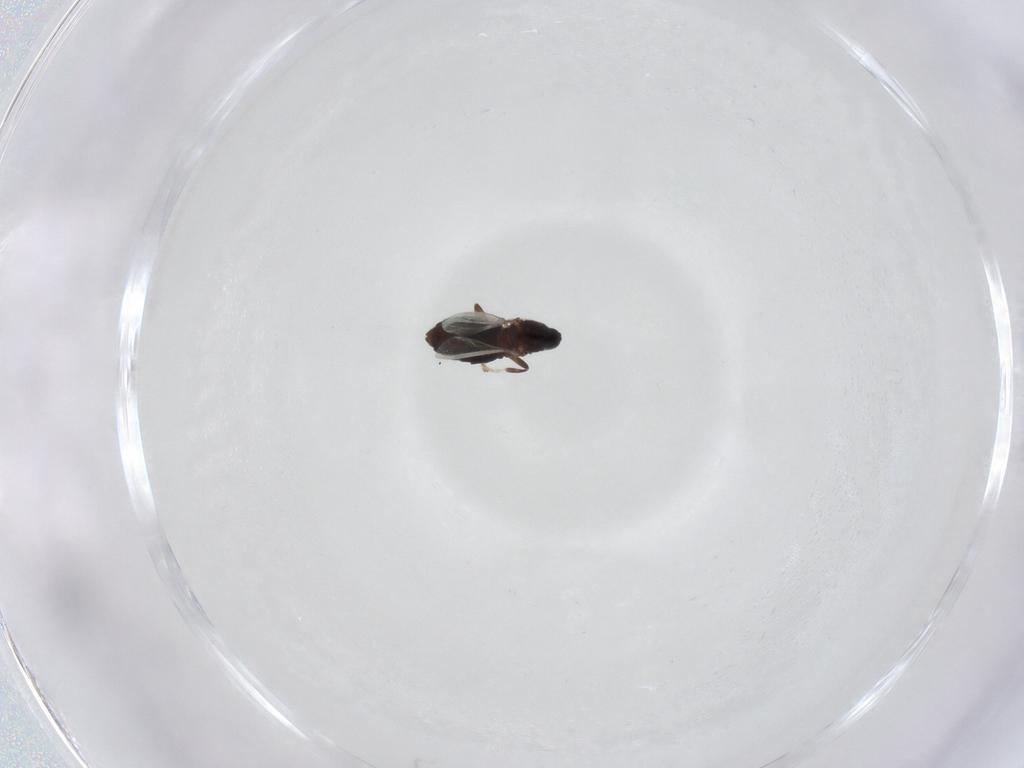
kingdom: Animalia
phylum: Arthropoda
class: Insecta
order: Diptera
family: Scatopsidae
